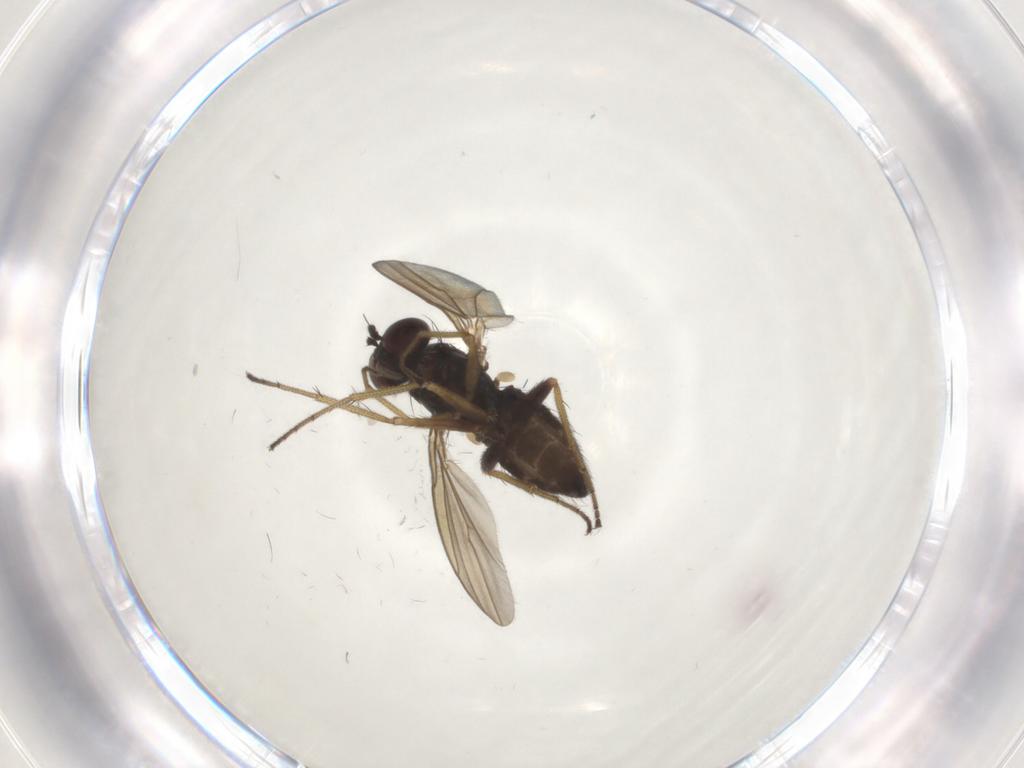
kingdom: Animalia
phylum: Arthropoda
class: Insecta
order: Diptera
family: Dolichopodidae
